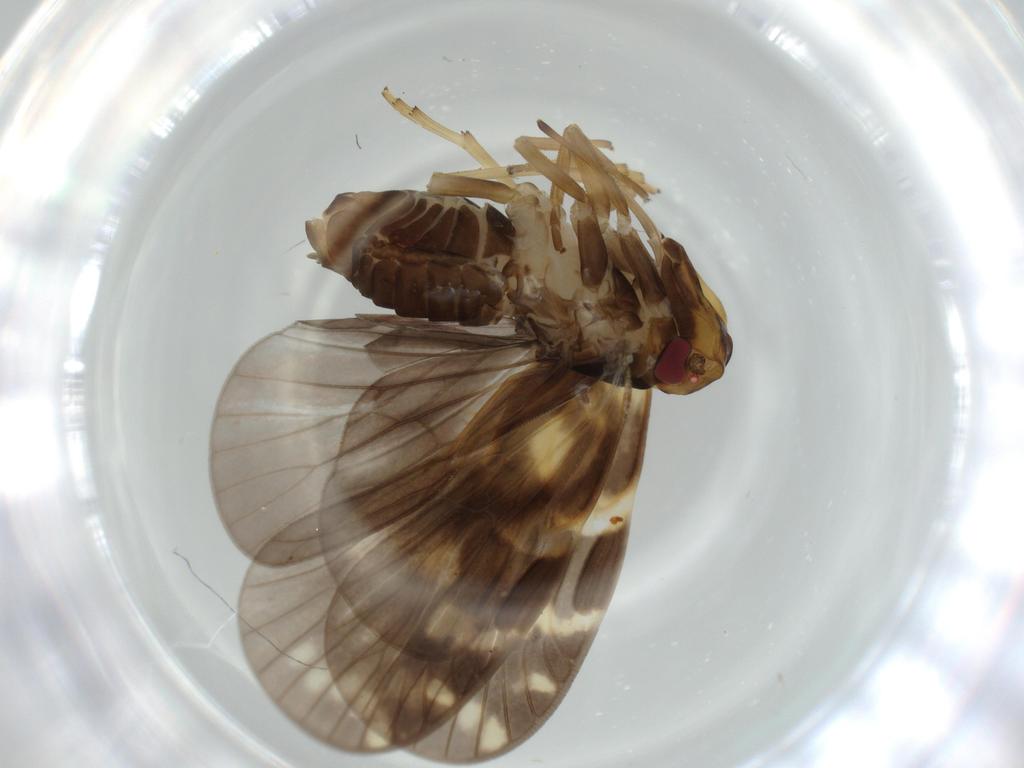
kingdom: Animalia
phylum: Arthropoda
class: Insecta
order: Hemiptera
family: Cixiidae
